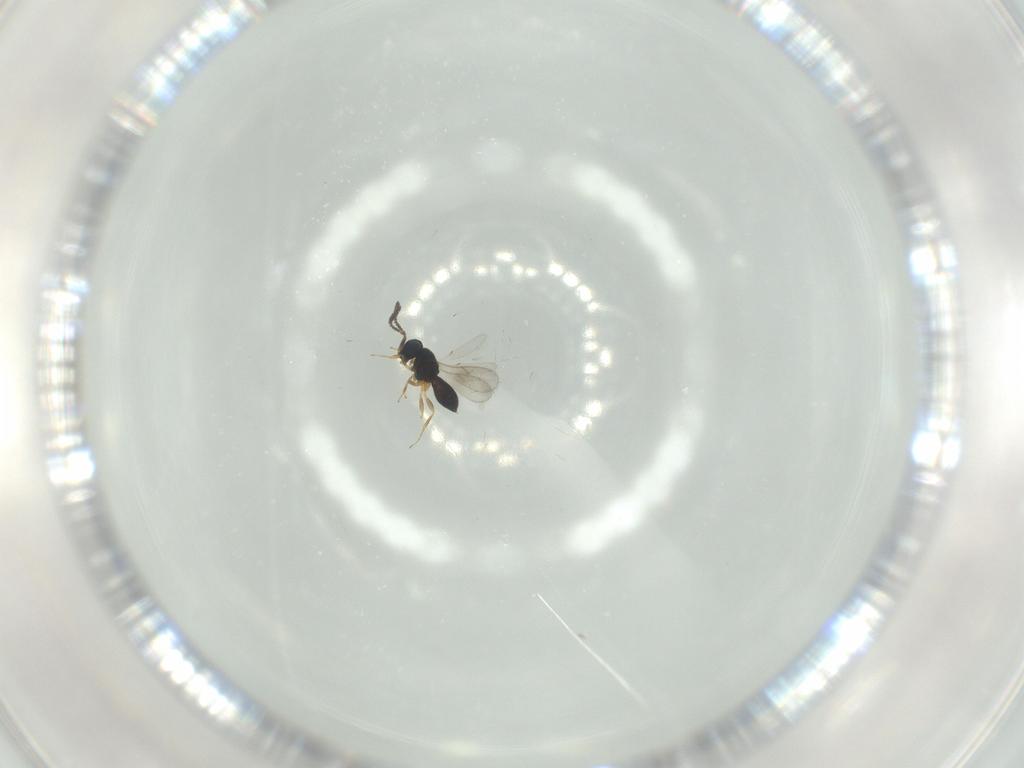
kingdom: Animalia
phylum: Arthropoda
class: Insecta
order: Hymenoptera
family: Scelionidae
